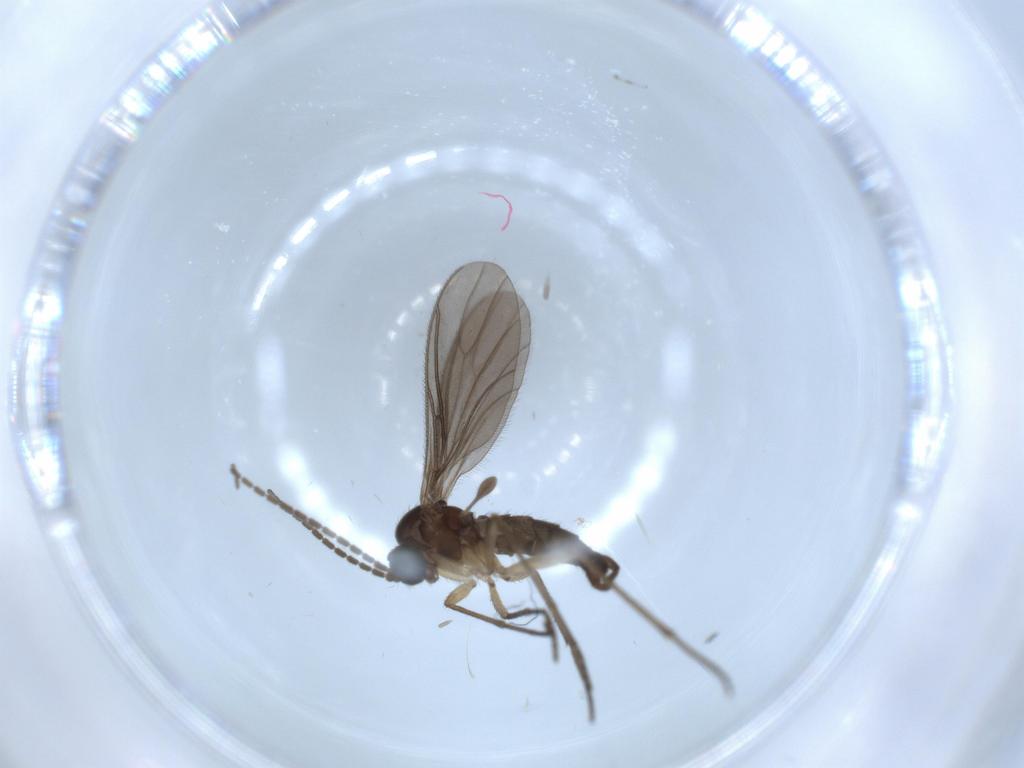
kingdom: Animalia
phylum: Arthropoda
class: Insecta
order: Diptera
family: Sciaridae
